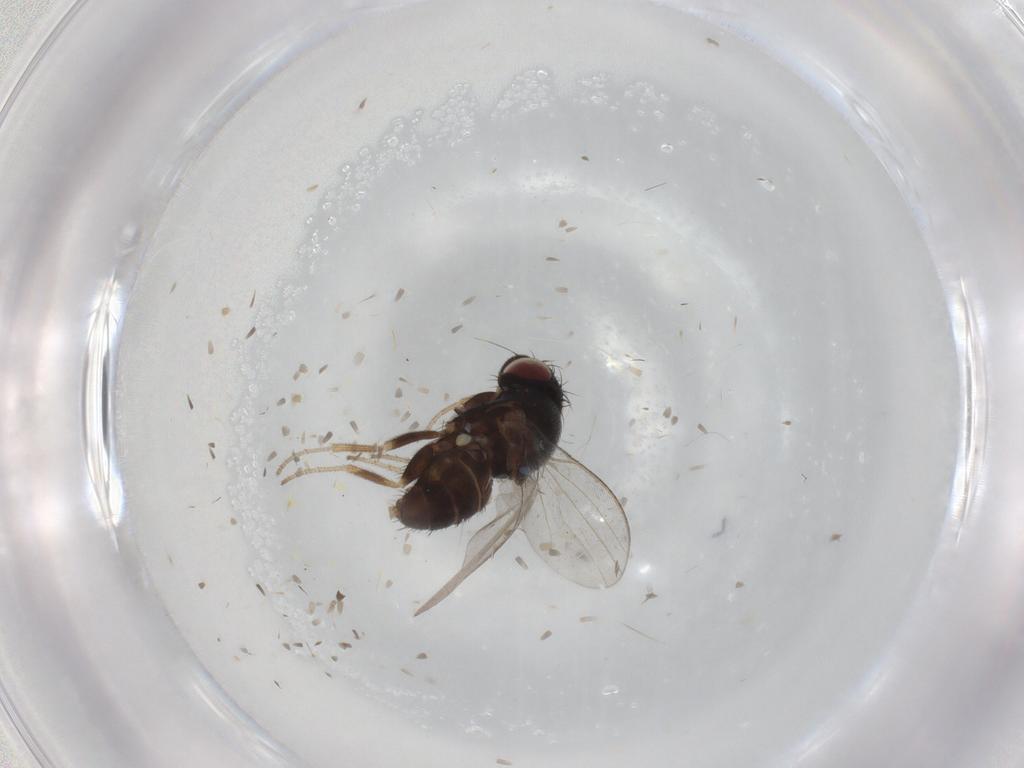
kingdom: Animalia
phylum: Arthropoda
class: Insecta
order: Diptera
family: Milichiidae
